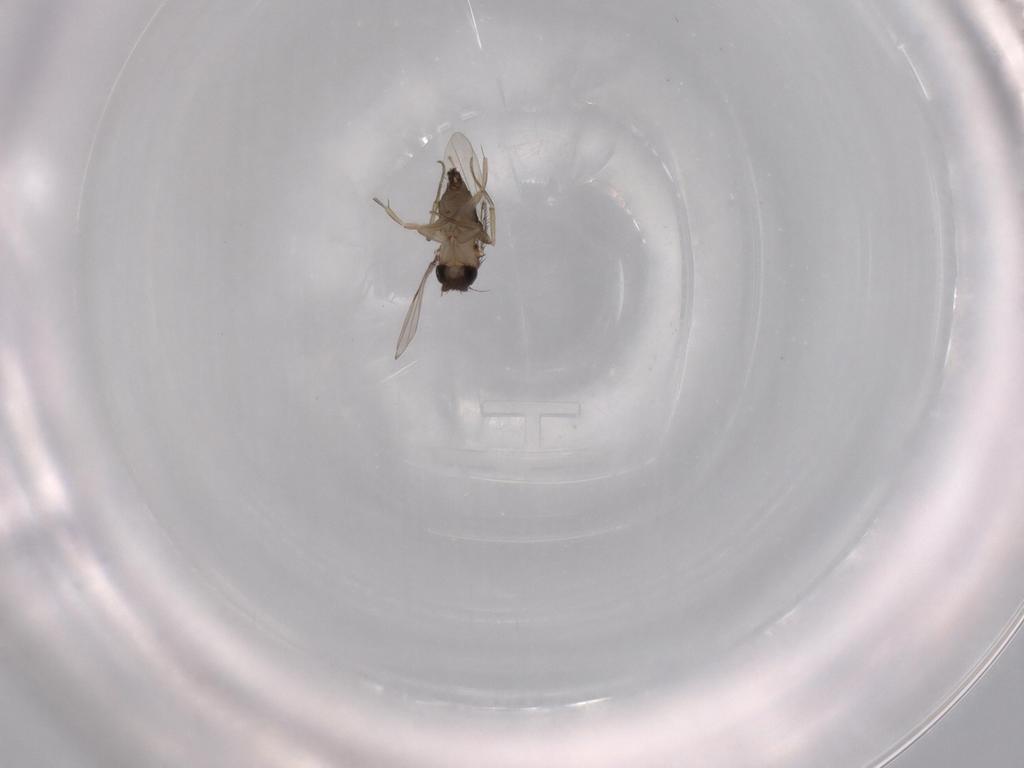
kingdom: Animalia
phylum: Arthropoda
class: Insecta
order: Diptera
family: Phoridae
